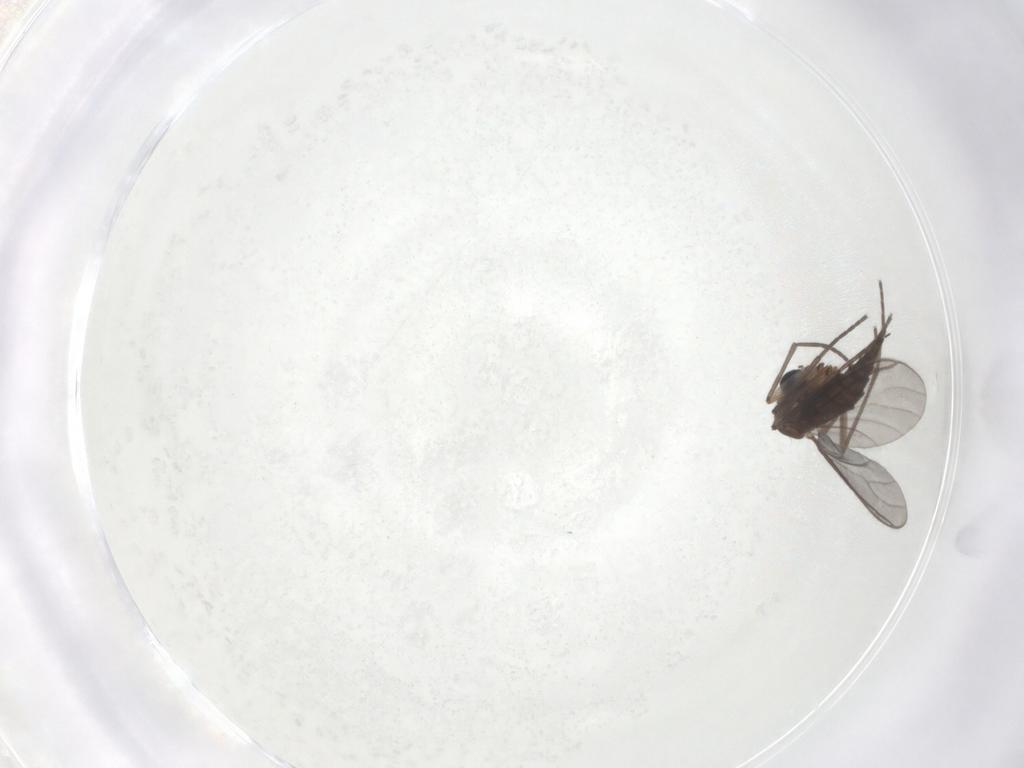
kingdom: Animalia
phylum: Arthropoda
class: Insecta
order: Diptera
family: Sciaridae
